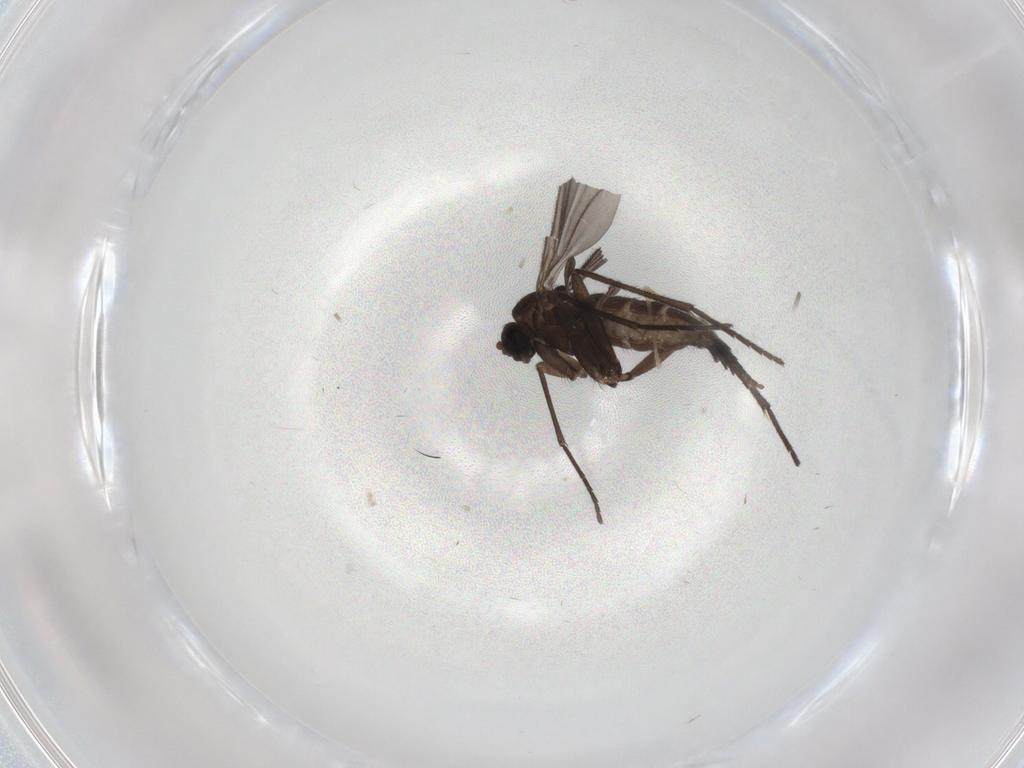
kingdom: Animalia
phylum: Arthropoda
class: Insecta
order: Diptera
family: Sciaridae
